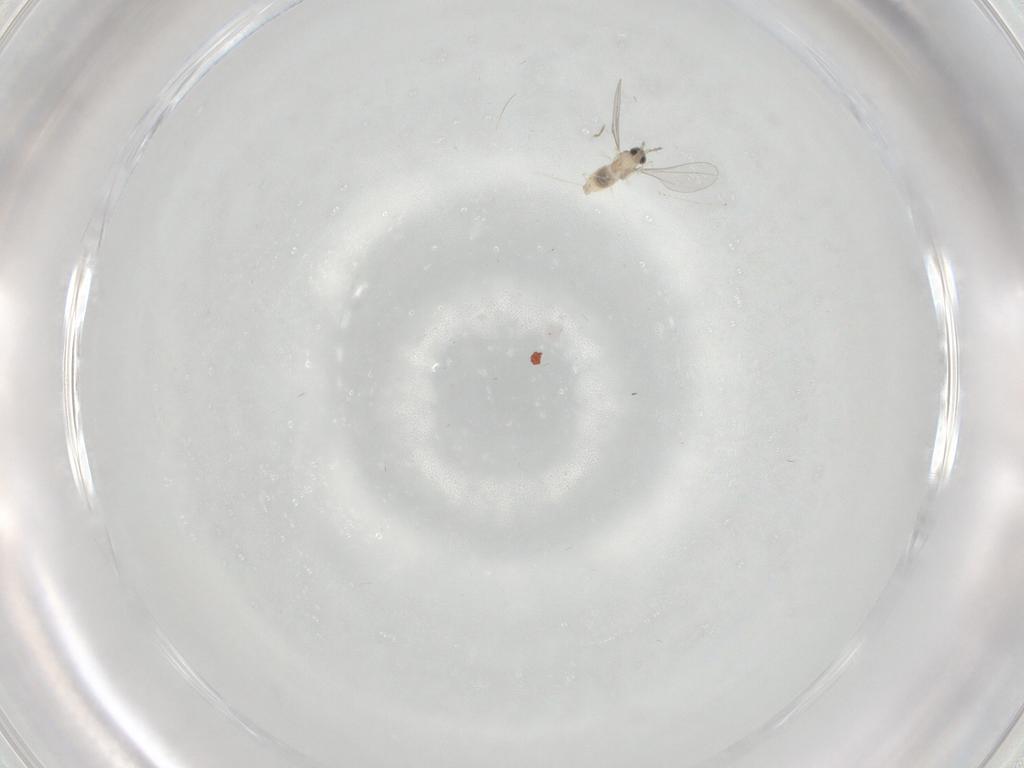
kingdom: Animalia
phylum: Arthropoda
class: Insecta
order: Diptera
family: Cecidomyiidae
